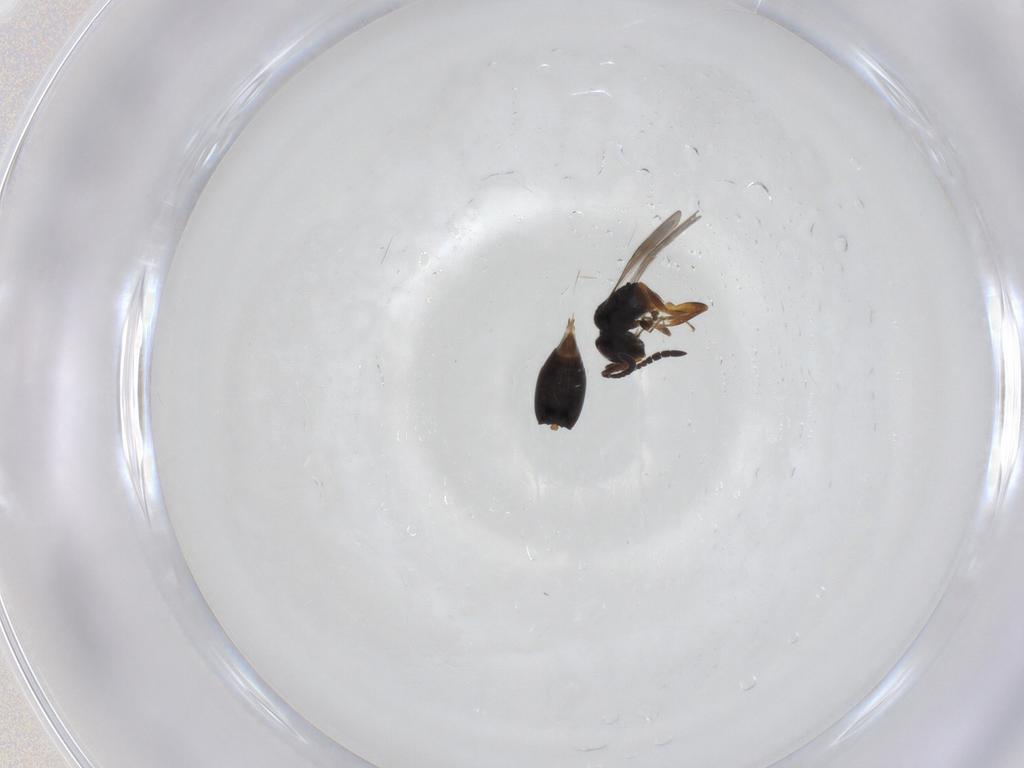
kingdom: Animalia
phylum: Arthropoda
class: Insecta
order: Hymenoptera
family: Ceraphronidae
